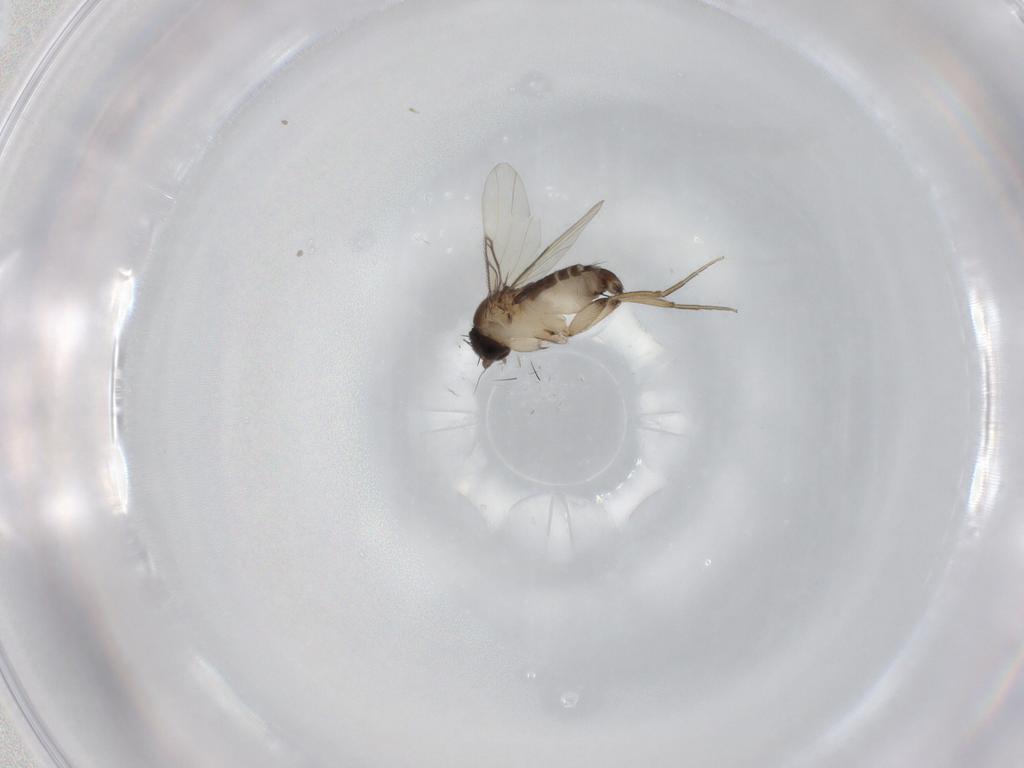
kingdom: Animalia
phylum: Arthropoda
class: Insecta
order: Diptera
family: Phoridae
